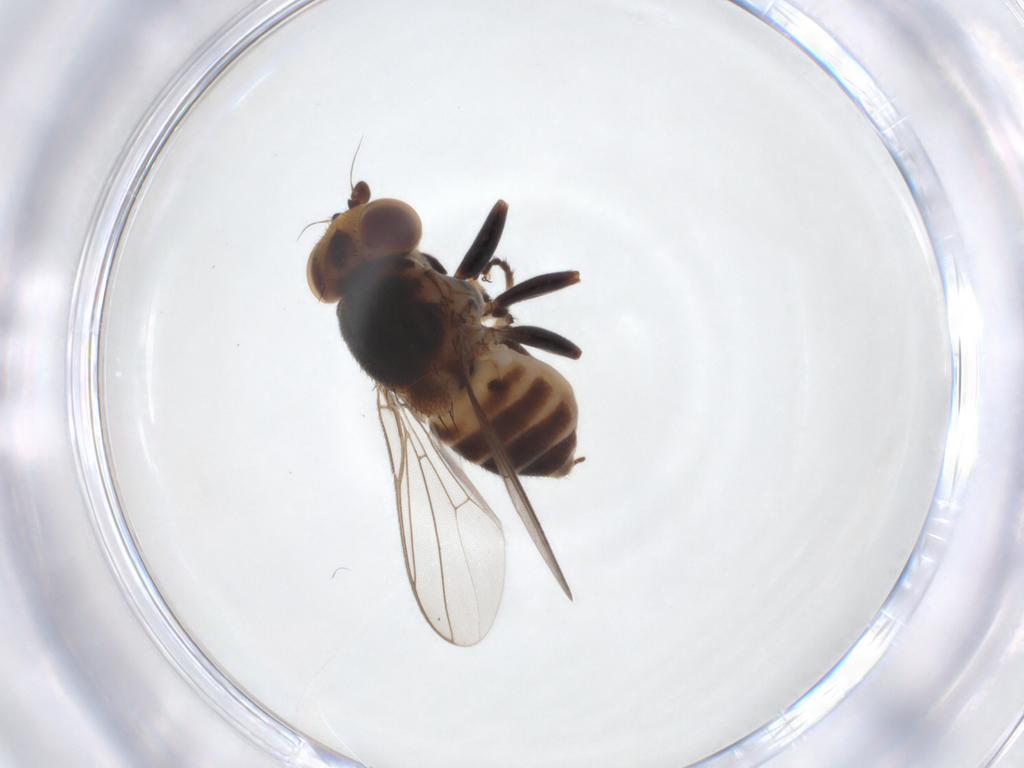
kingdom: Animalia
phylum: Arthropoda
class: Insecta
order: Diptera
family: Chloropidae
